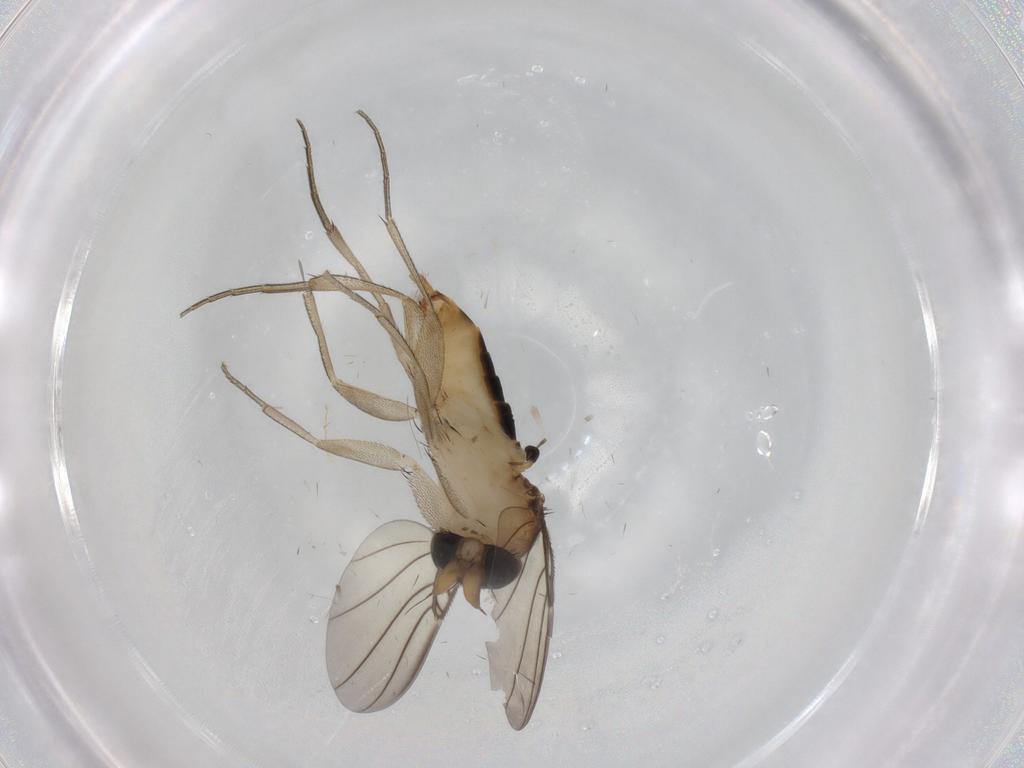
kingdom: Animalia
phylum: Arthropoda
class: Insecta
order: Diptera
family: Phoridae
